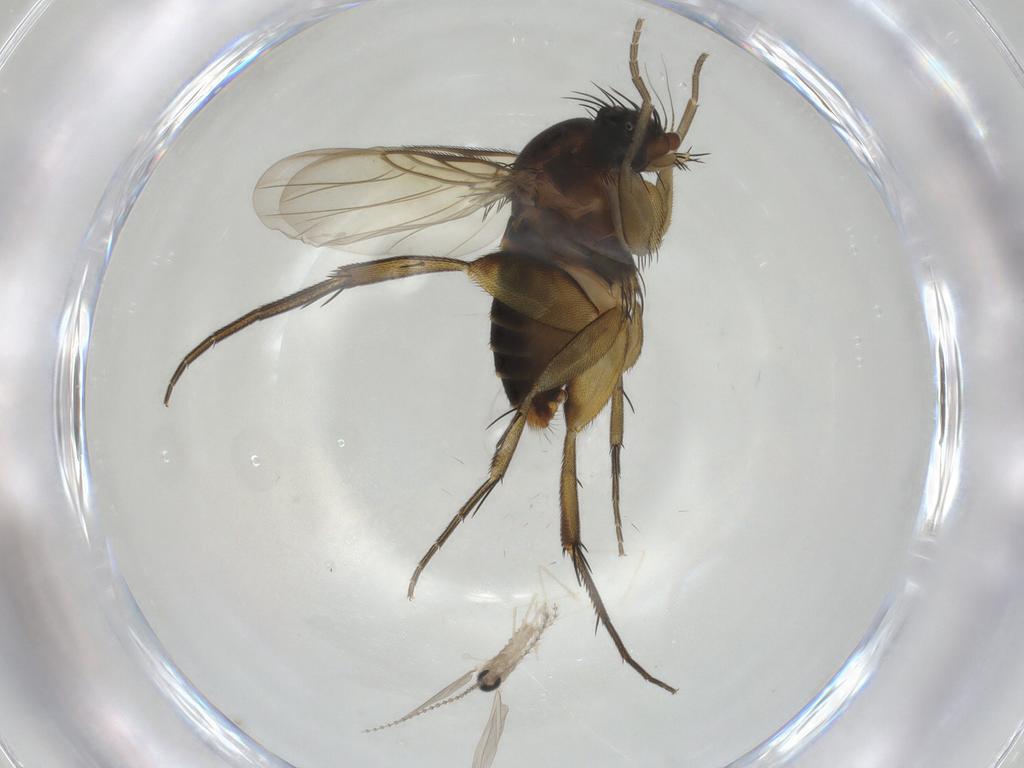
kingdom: Animalia
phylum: Arthropoda
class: Insecta
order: Diptera
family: Phoridae
